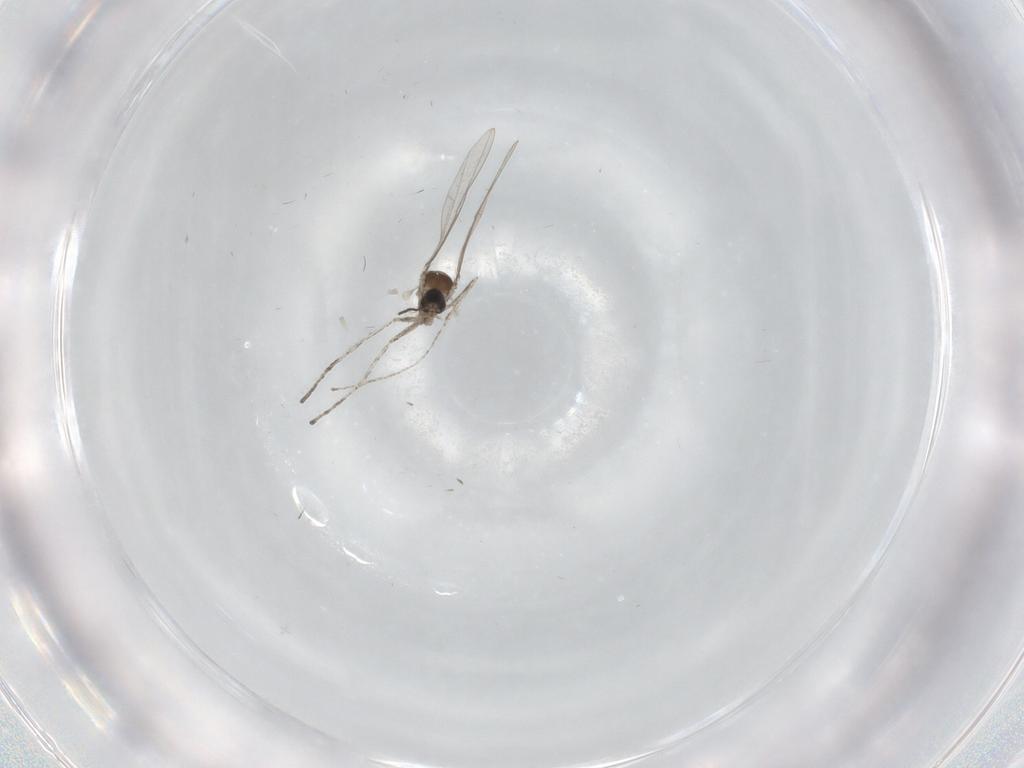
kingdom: Animalia
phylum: Arthropoda
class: Insecta
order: Diptera
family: Cecidomyiidae
